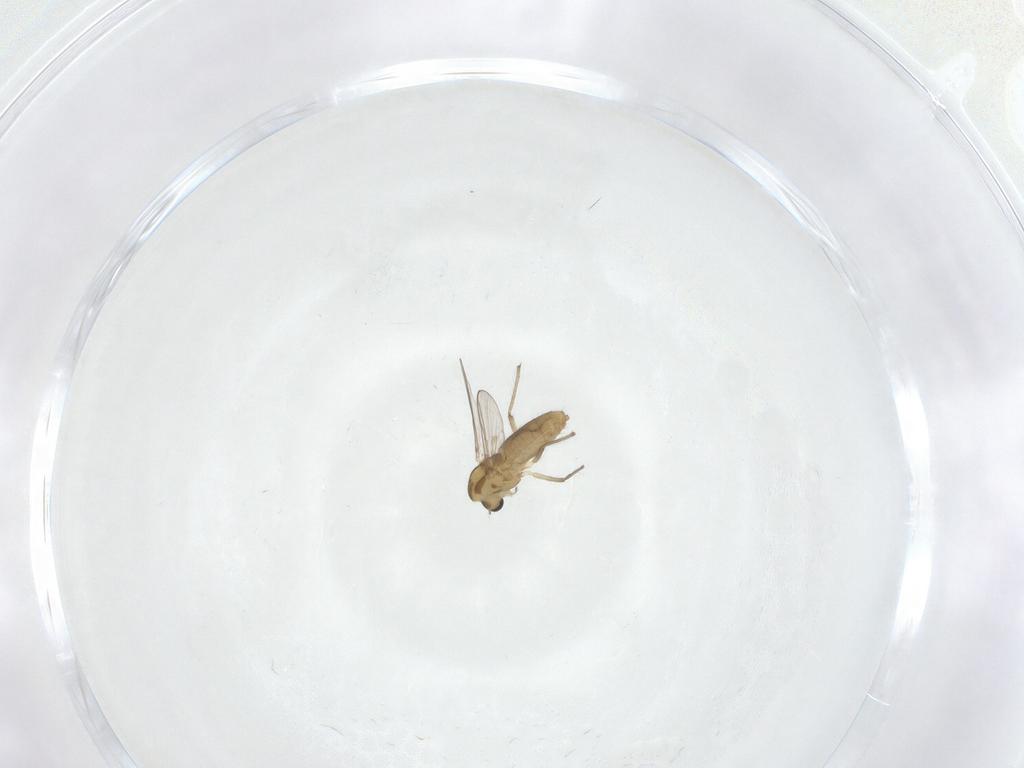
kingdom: Animalia
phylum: Arthropoda
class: Insecta
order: Diptera
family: Chironomidae
